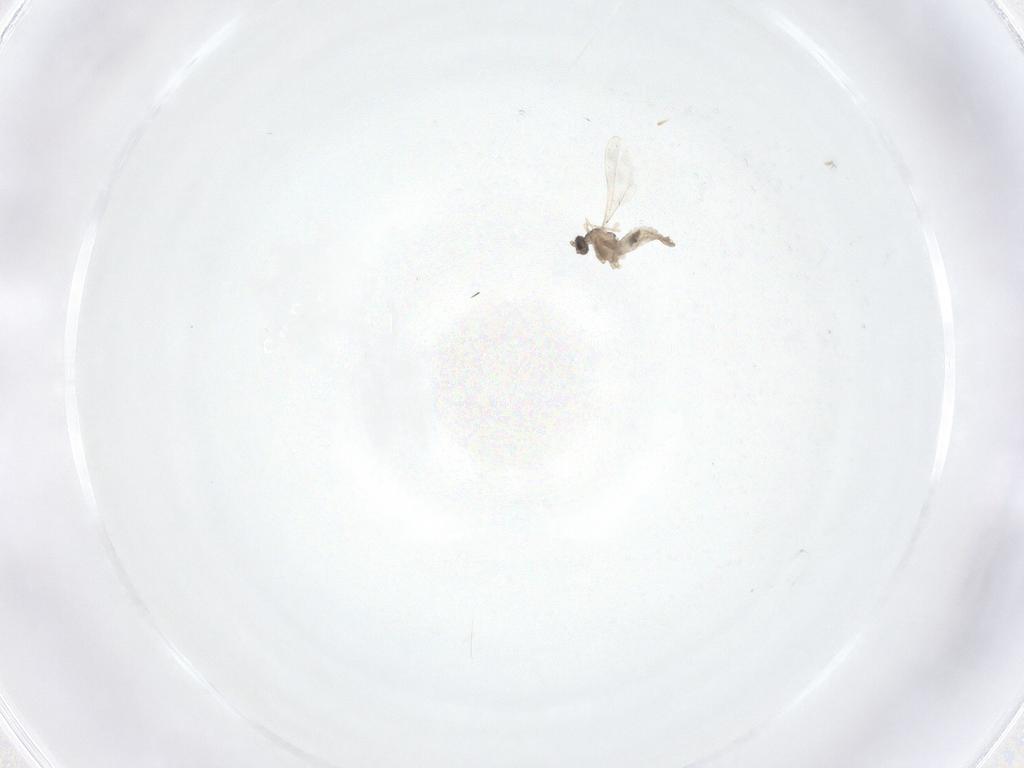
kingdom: Animalia
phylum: Arthropoda
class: Insecta
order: Diptera
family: Cecidomyiidae
